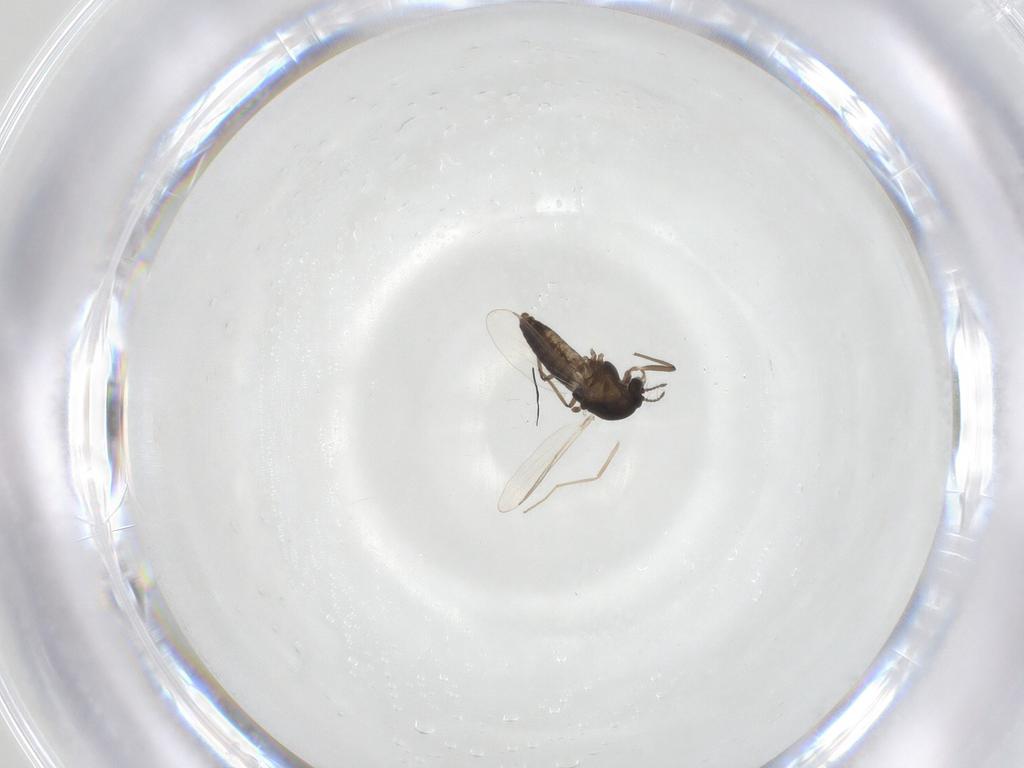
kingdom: Animalia
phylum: Arthropoda
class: Insecta
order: Diptera
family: Chironomidae
